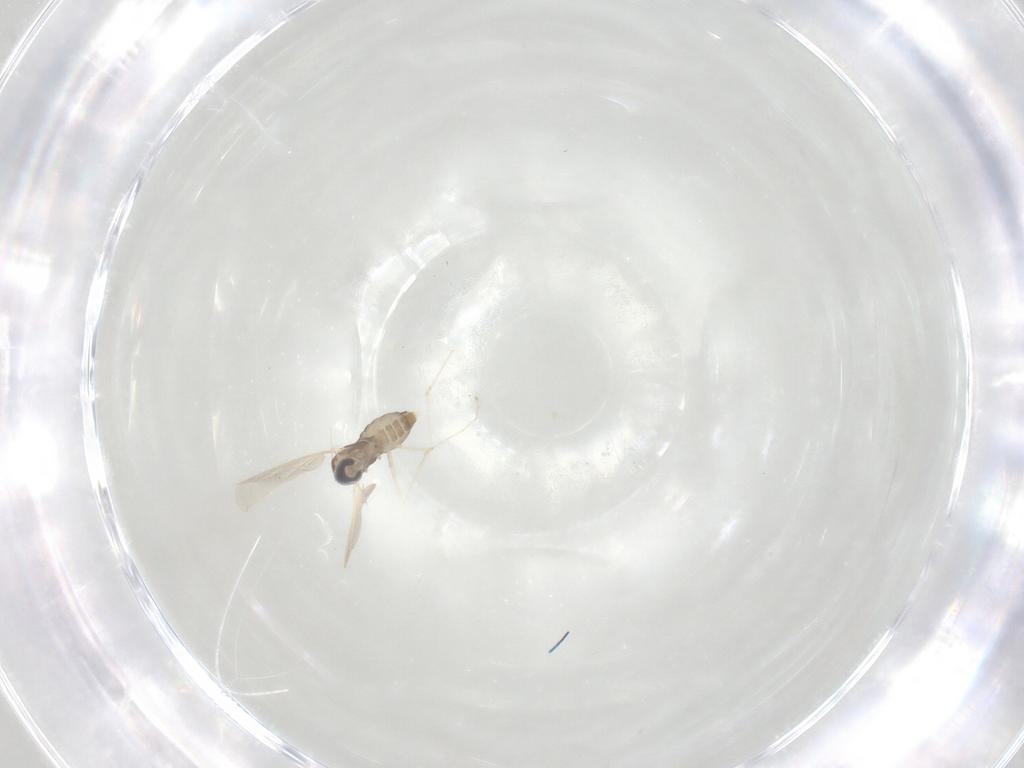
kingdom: Animalia
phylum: Arthropoda
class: Insecta
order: Diptera
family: Cecidomyiidae
